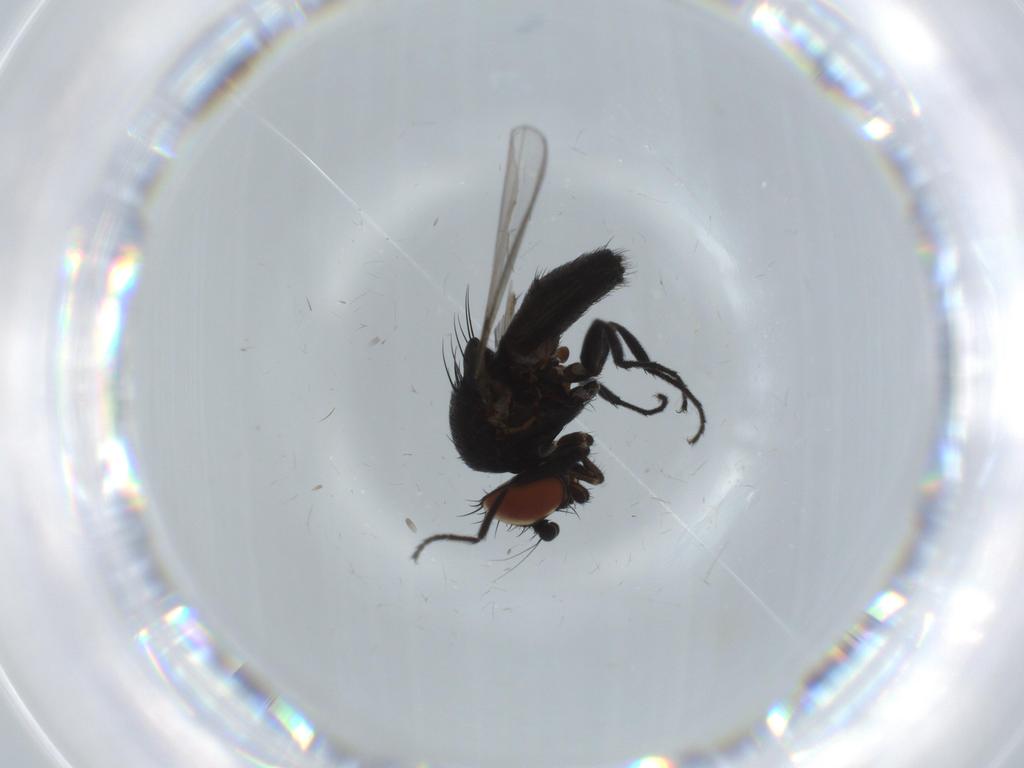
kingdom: Animalia
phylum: Arthropoda
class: Insecta
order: Diptera
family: Milichiidae
